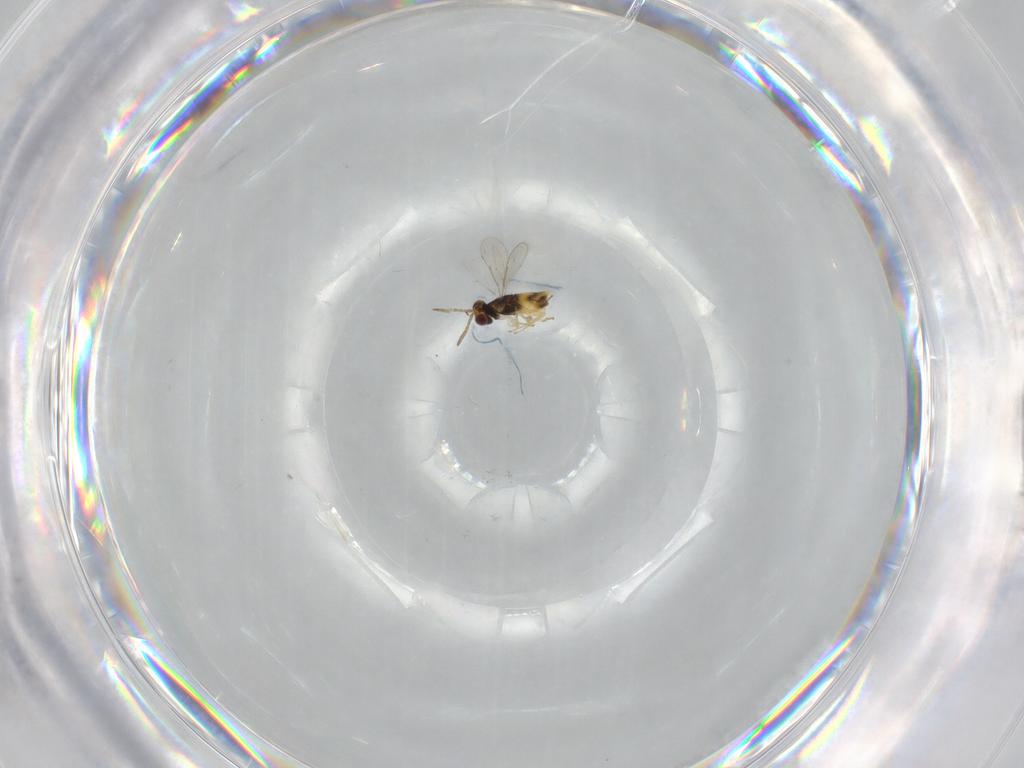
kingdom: Animalia
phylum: Arthropoda
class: Insecta
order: Hymenoptera
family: Aphelinidae
